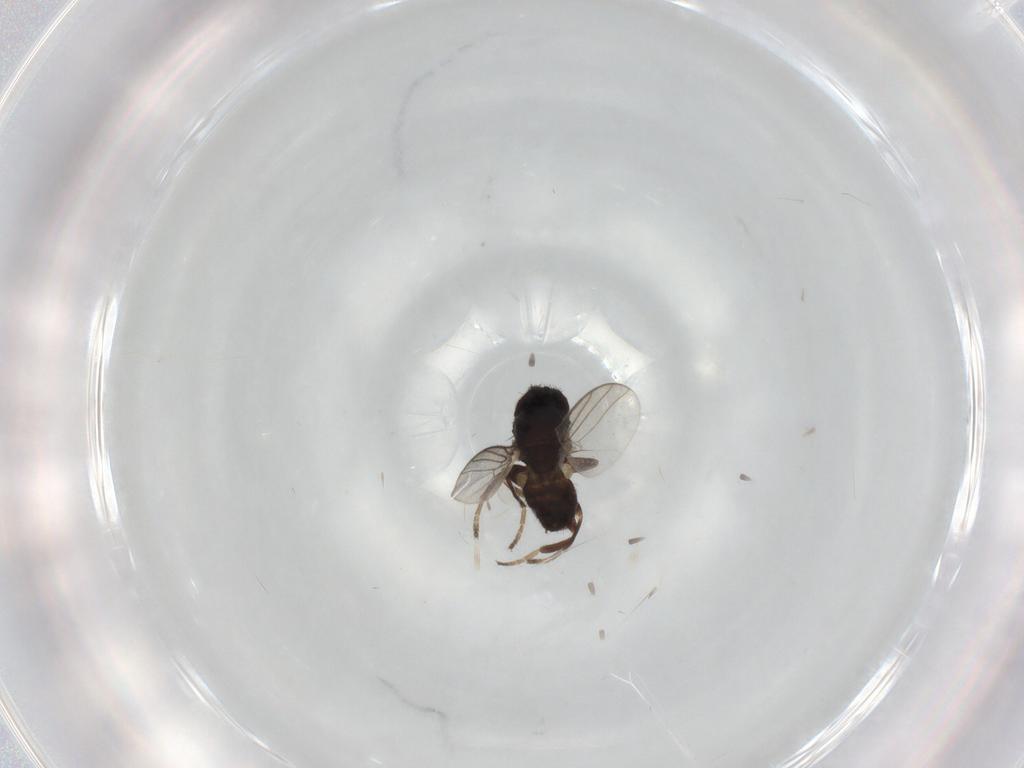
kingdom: Animalia
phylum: Arthropoda
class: Insecta
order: Diptera
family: Chloropidae
